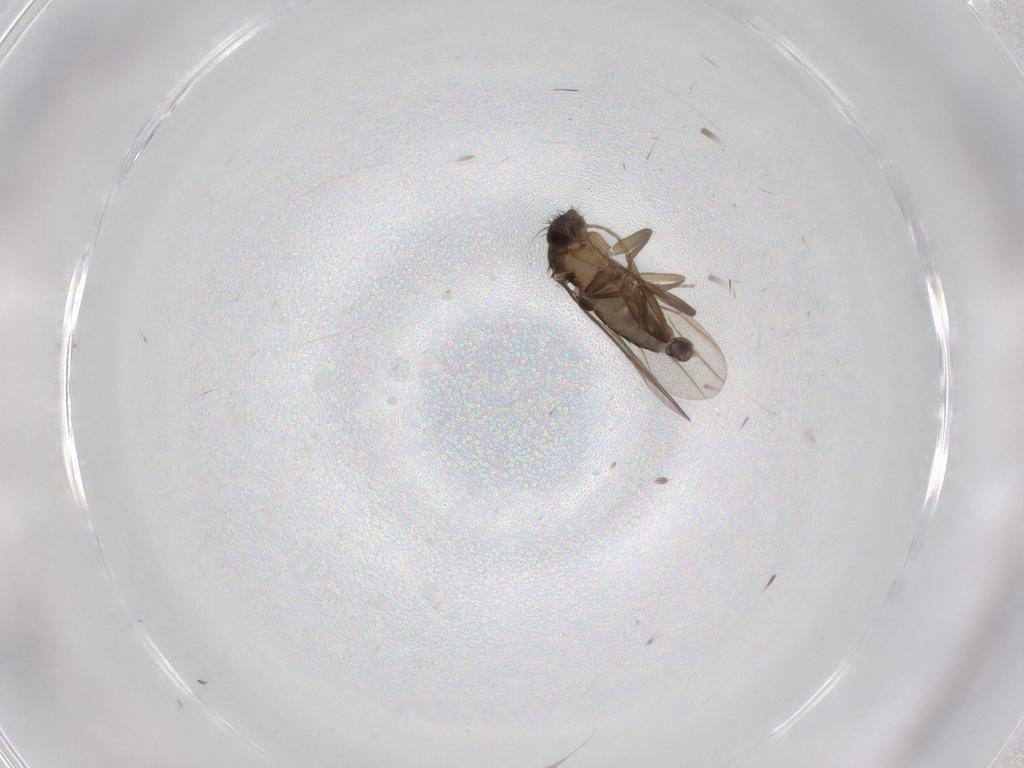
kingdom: Animalia
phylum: Arthropoda
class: Insecta
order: Diptera
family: Phoridae
